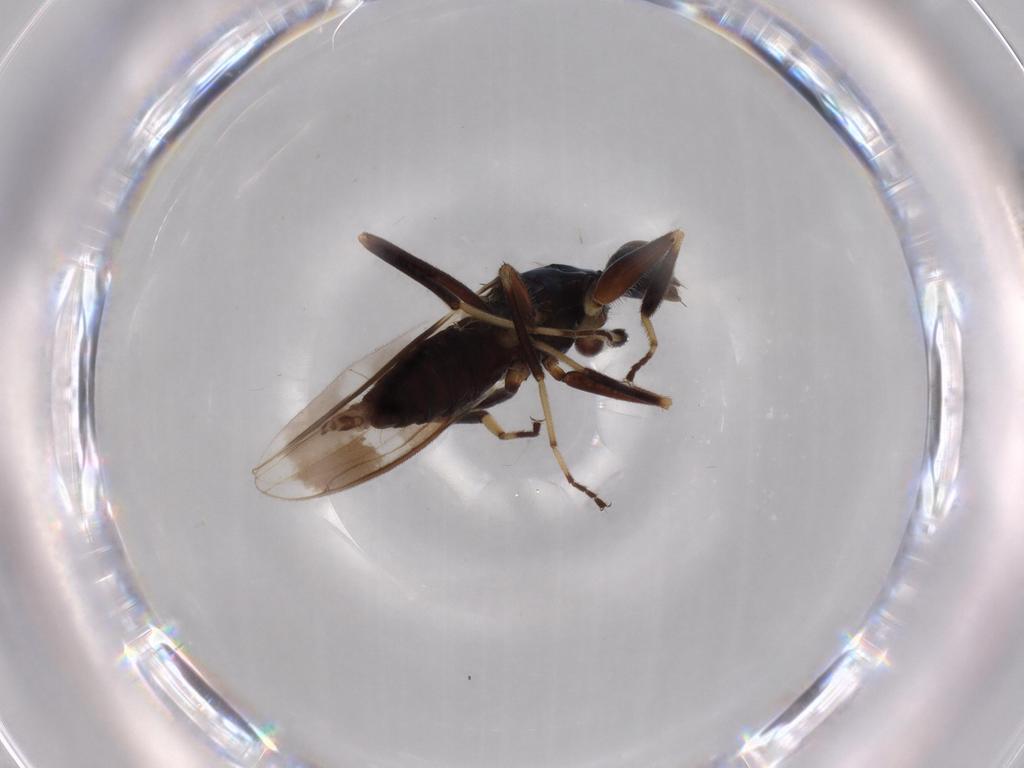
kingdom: Animalia
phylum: Arthropoda
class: Insecta
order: Diptera
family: Hybotidae
